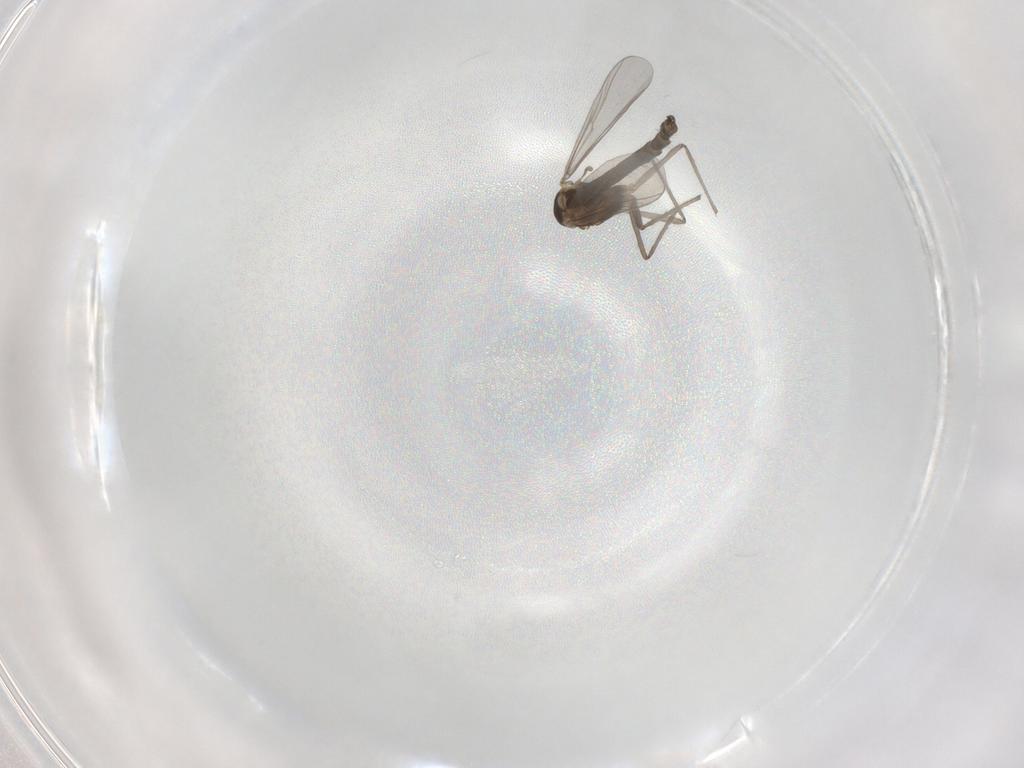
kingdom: Animalia
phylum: Arthropoda
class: Insecta
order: Diptera
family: Chironomidae
